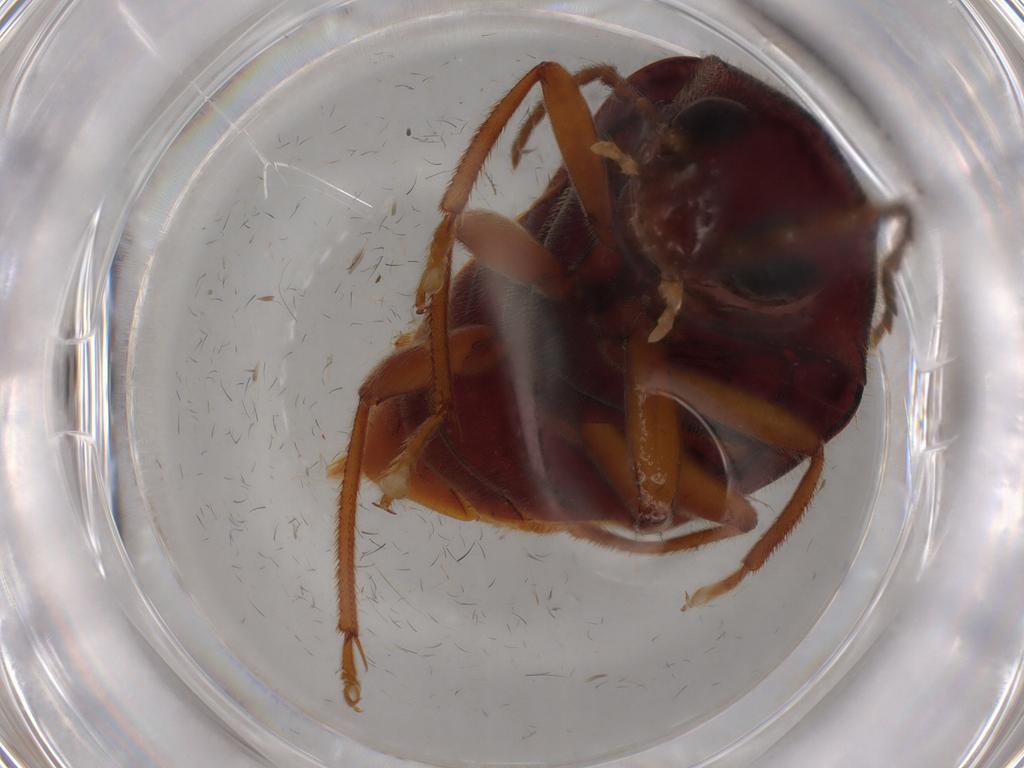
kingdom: Animalia
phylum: Arthropoda
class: Insecta
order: Coleoptera
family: Ptilodactylidae
